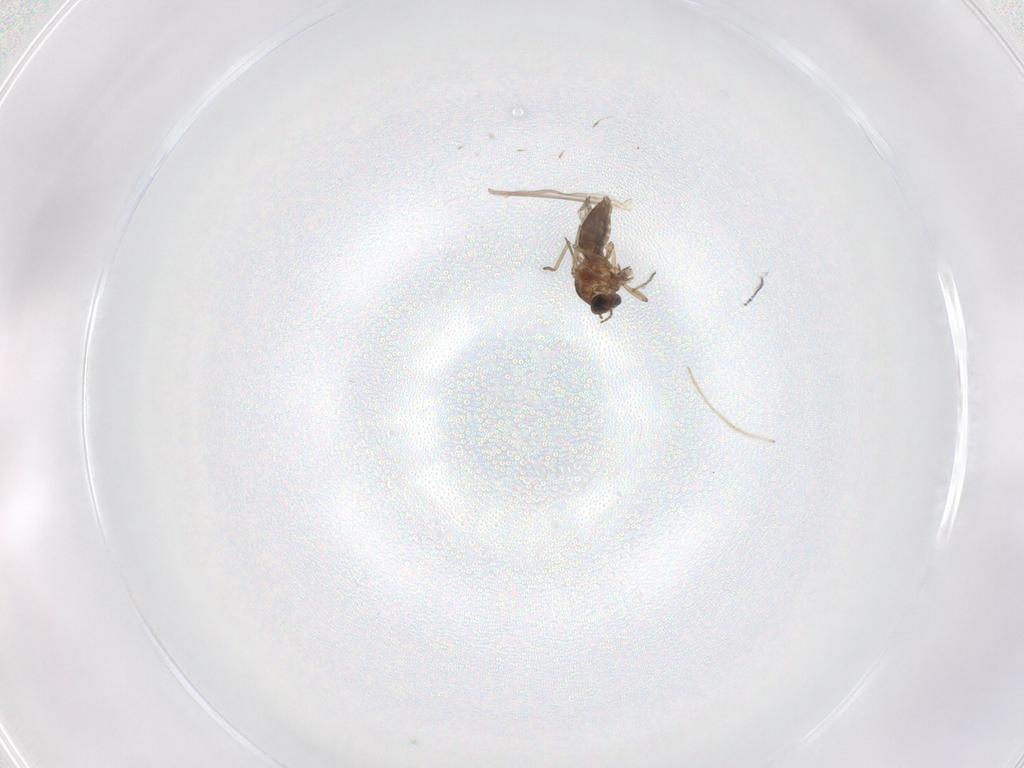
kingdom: Animalia
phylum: Arthropoda
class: Insecta
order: Diptera
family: Chironomidae
